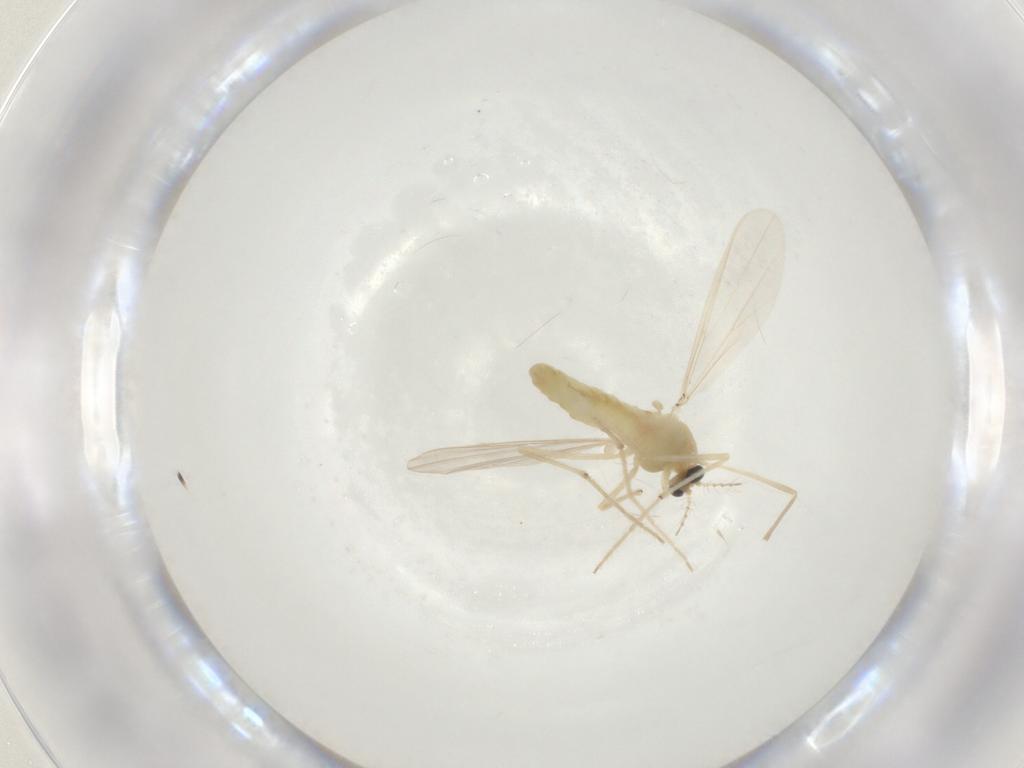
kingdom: Animalia
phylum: Arthropoda
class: Insecta
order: Diptera
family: Chironomidae
